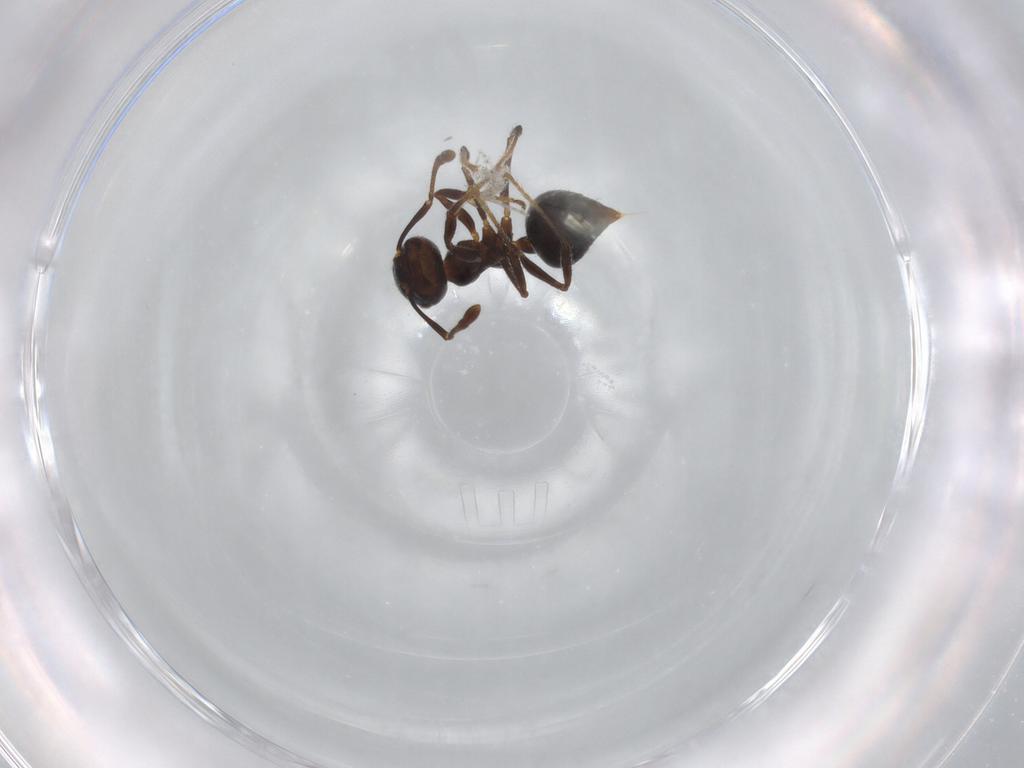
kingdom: Animalia
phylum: Arthropoda
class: Insecta
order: Hymenoptera
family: Formicidae
